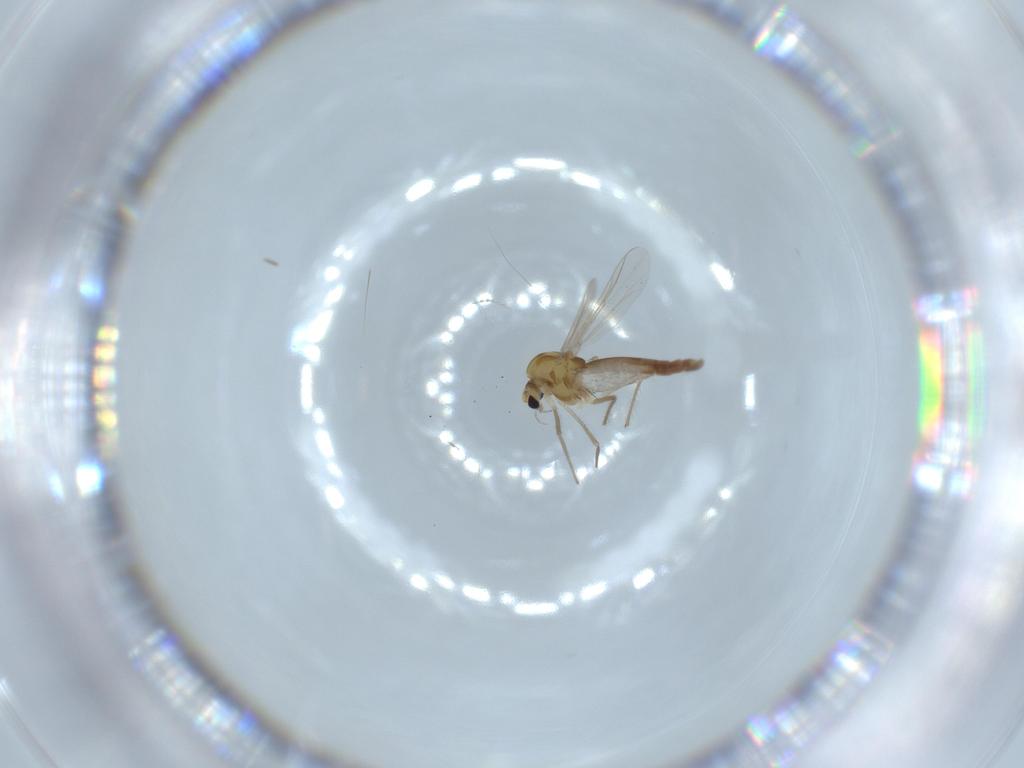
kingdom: Animalia
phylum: Arthropoda
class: Insecta
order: Diptera
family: Chironomidae
